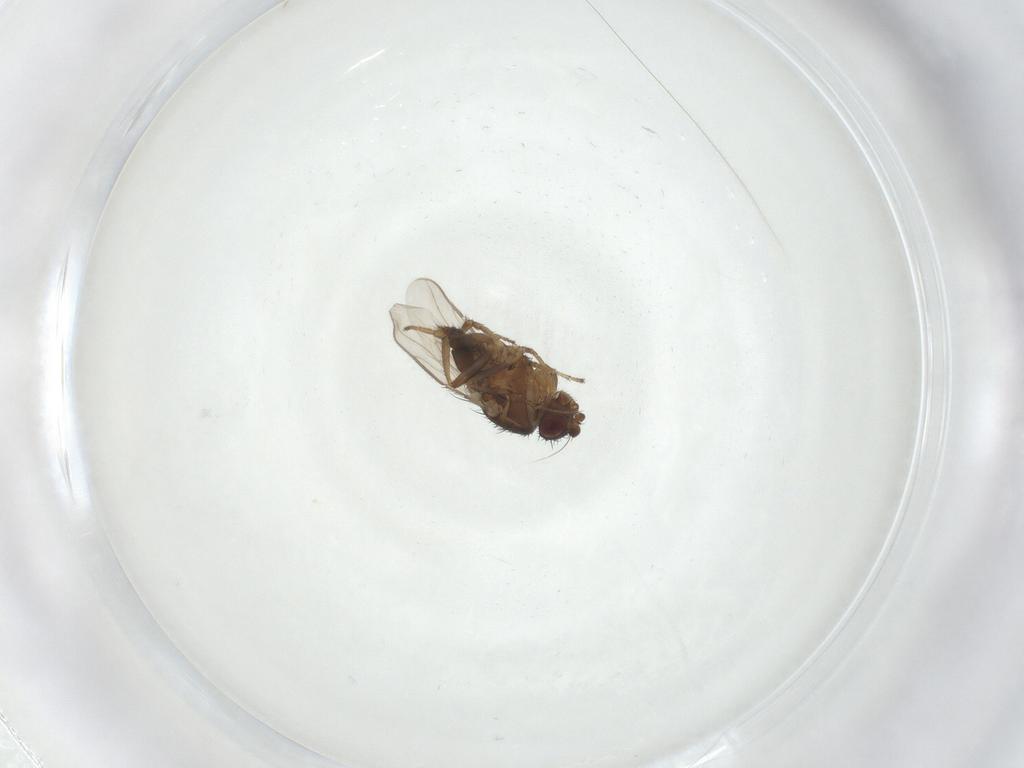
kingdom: Animalia
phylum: Arthropoda
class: Insecta
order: Diptera
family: Sphaeroceridae
